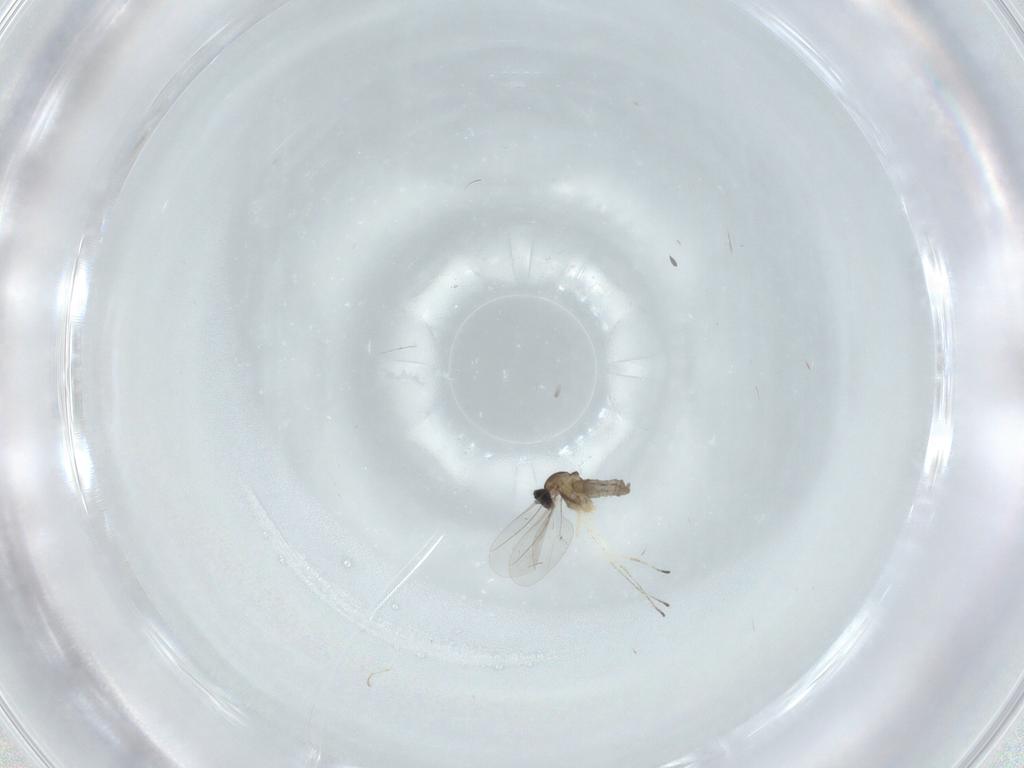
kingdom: Animalia
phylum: Arthropoda
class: Insecta
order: Diptera
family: Cecidomyiidae
